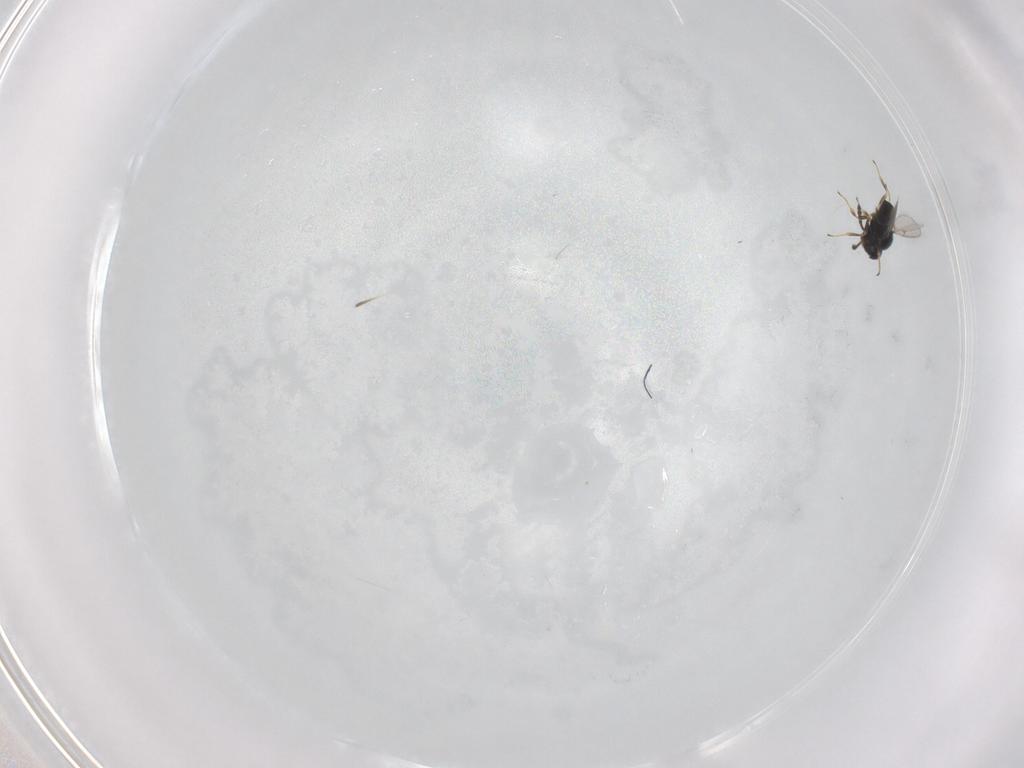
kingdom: Animalia
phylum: Arthropoda
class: Insecta
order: Hymenoptera
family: Scelionidae
